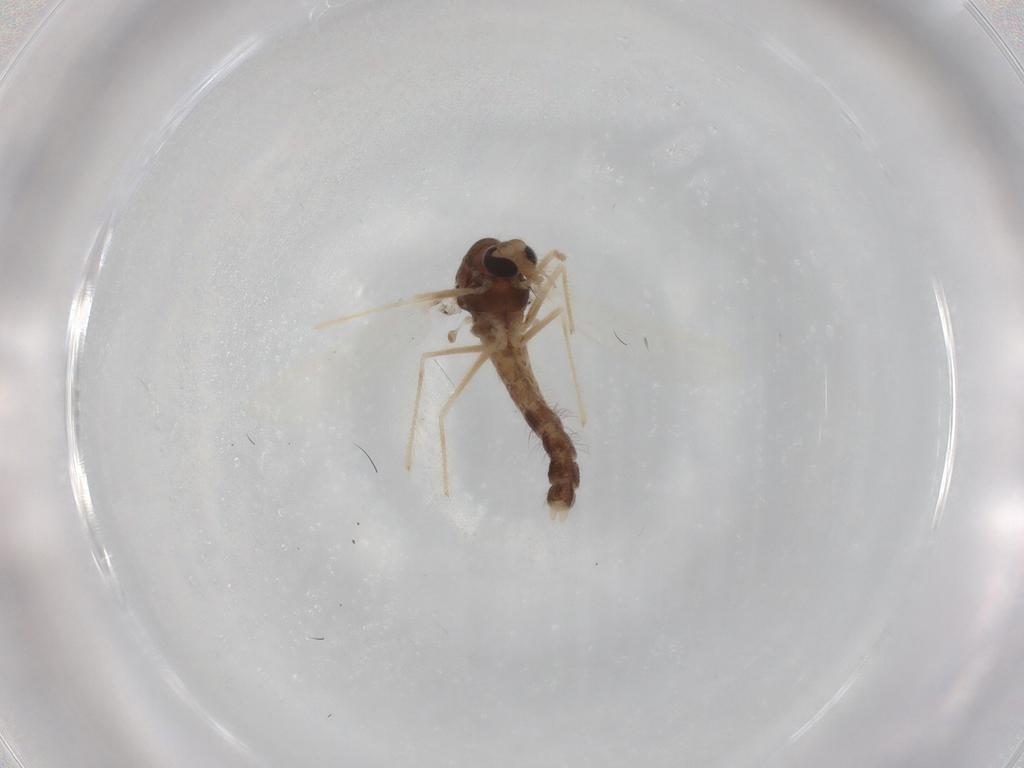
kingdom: Animalia
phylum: Arthropoda
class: Insecta
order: Diptera
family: Chironomidae
